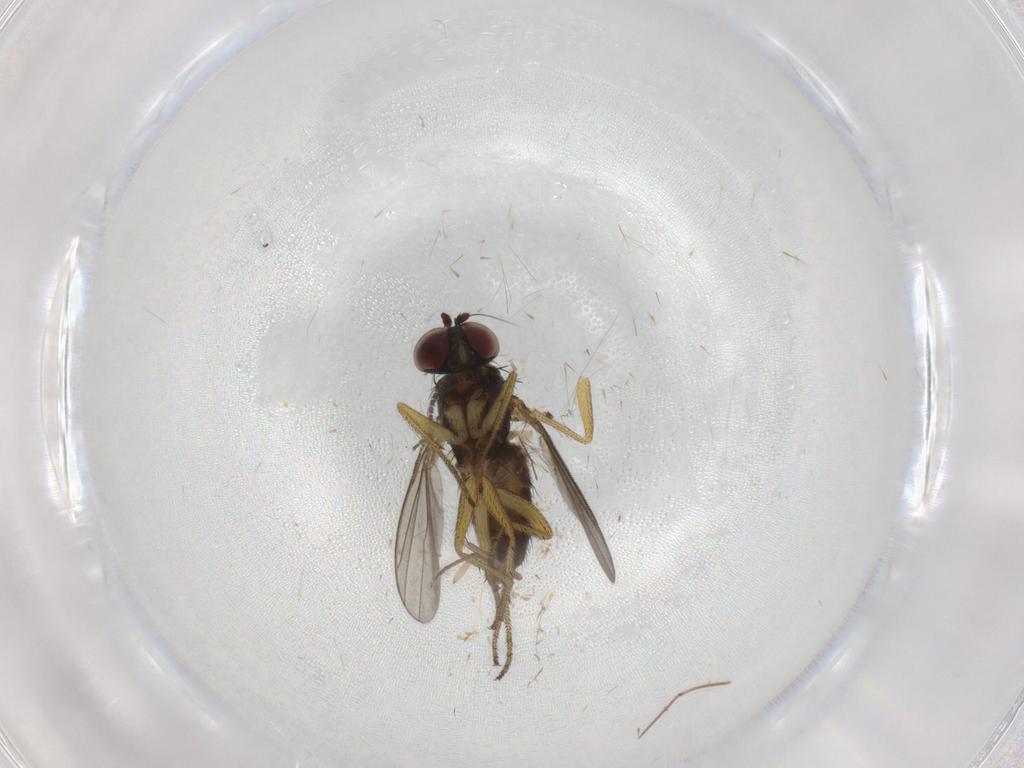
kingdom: Animalia
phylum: Arthropoda
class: Insecta
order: Diptera
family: Chironomidae
